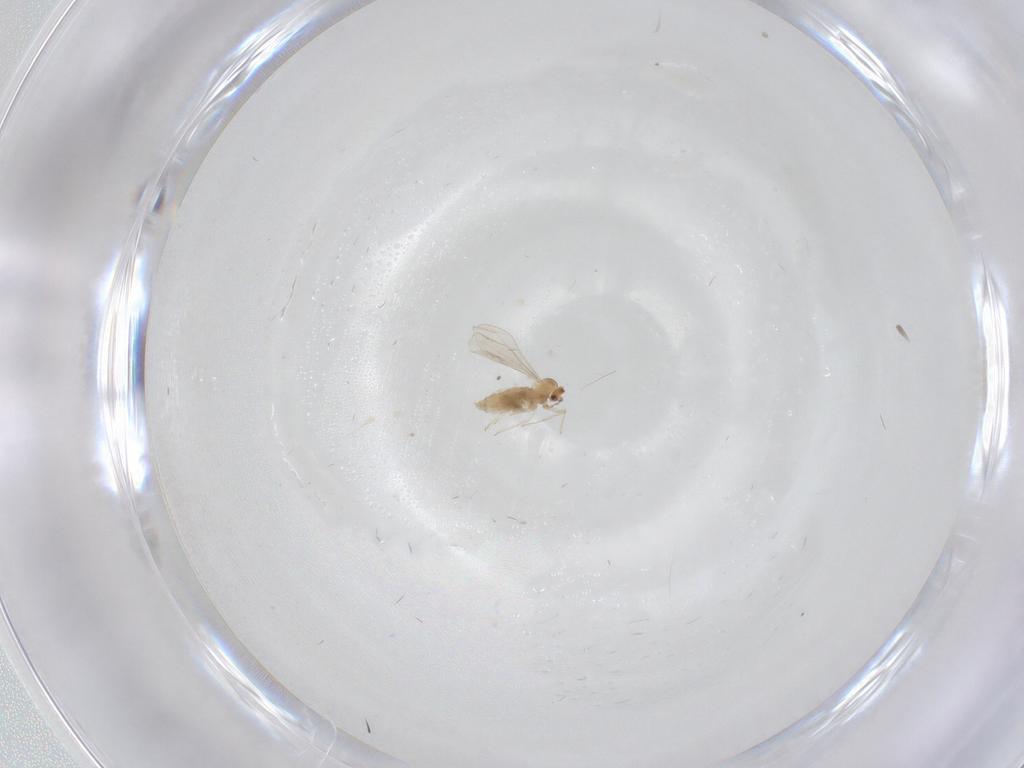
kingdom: Animalia
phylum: Arthropoda
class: Insecta
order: Diptera
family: Cecidomyiidae
